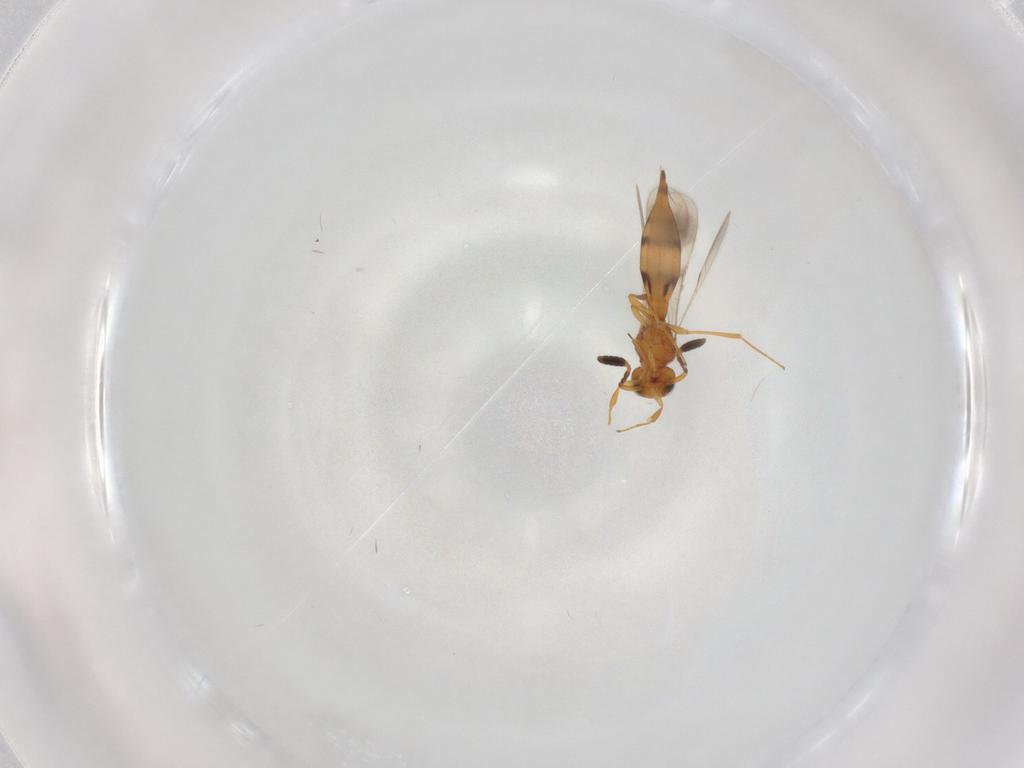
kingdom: Animalia
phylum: Arthropoda
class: Insecta
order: Hymenoptera
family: Scelionidae
